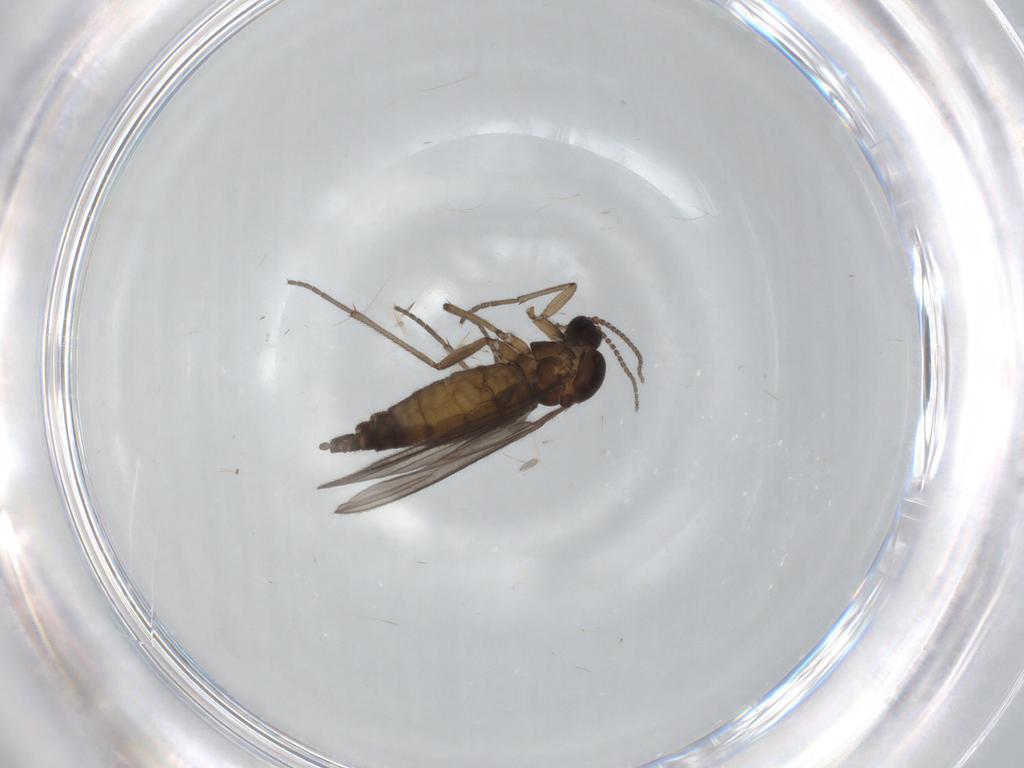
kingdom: Animalia
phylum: Arthropoda
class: Insecta
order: Diptera
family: Sciaridae
